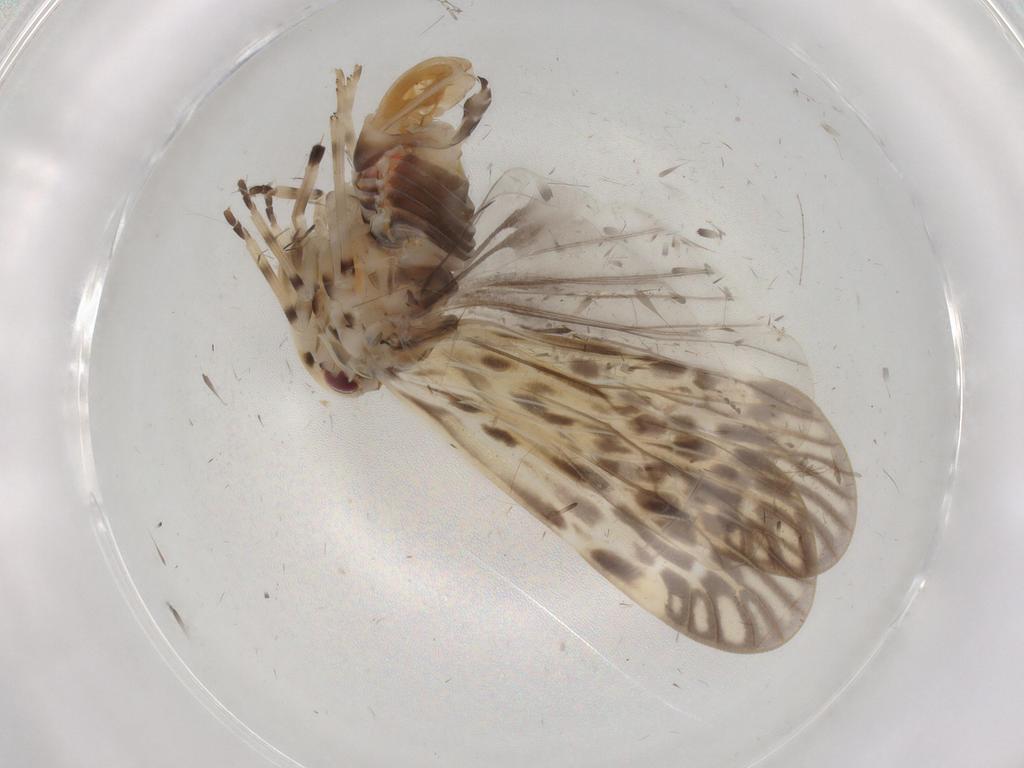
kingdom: Animalia
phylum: Arthropoda
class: Insecta
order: Hemiptera
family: Derbidae
